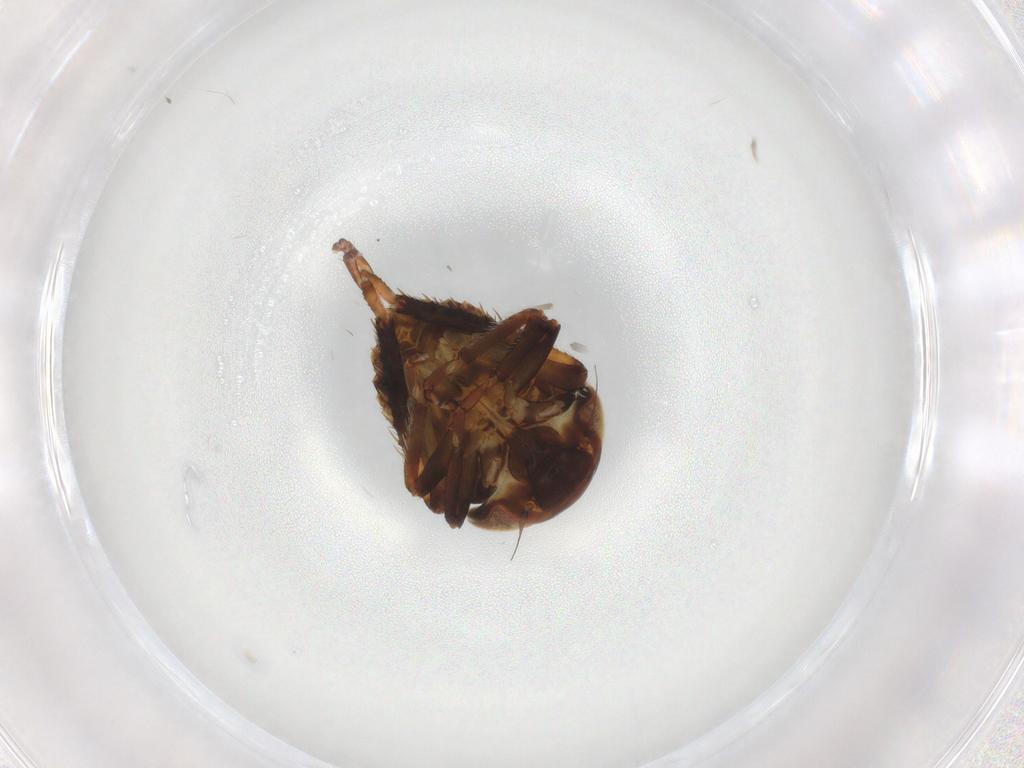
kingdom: Animalia
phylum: Arthropoda
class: Insecta
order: Hemiptera
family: Cicadellidae
